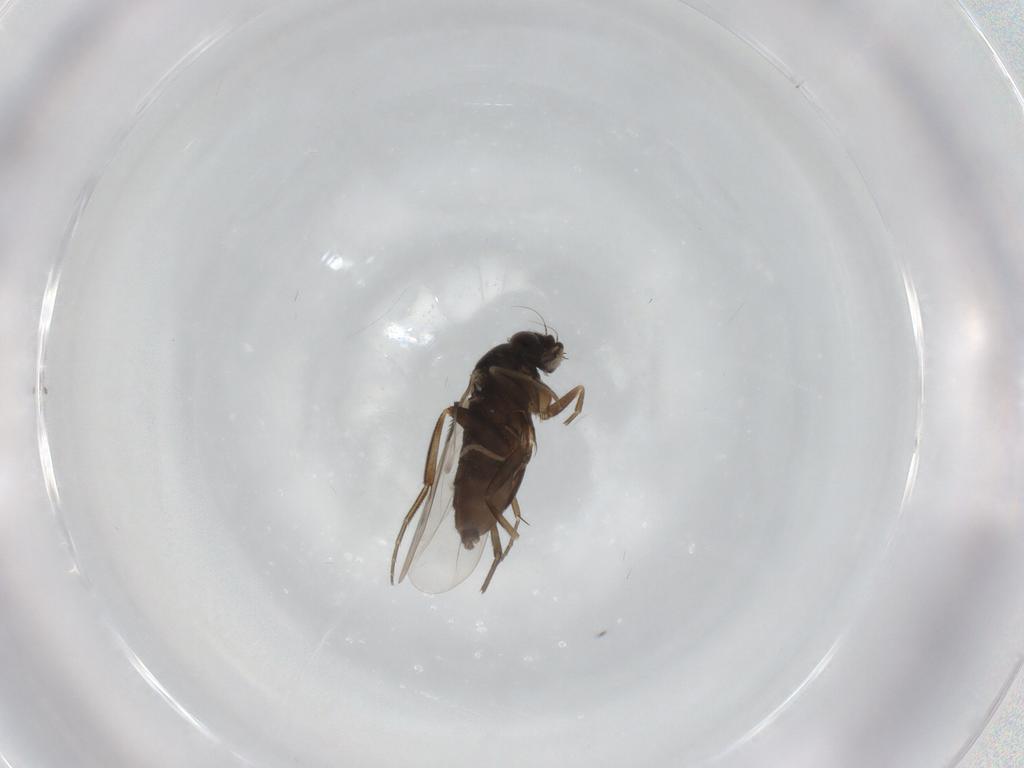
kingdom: Animalia
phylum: Arthropoda
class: Insecta
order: Diptera
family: Phoridae
